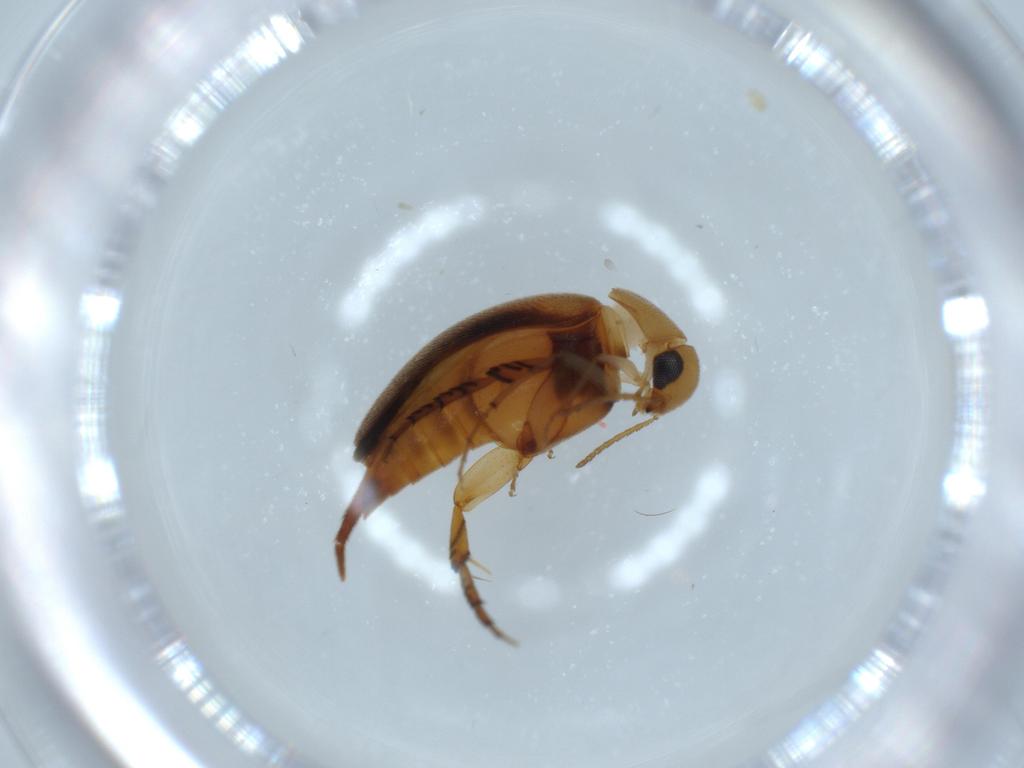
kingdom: Animalia
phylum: Arthropoda
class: Insecta
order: Coleoptera
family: Mordellidae
